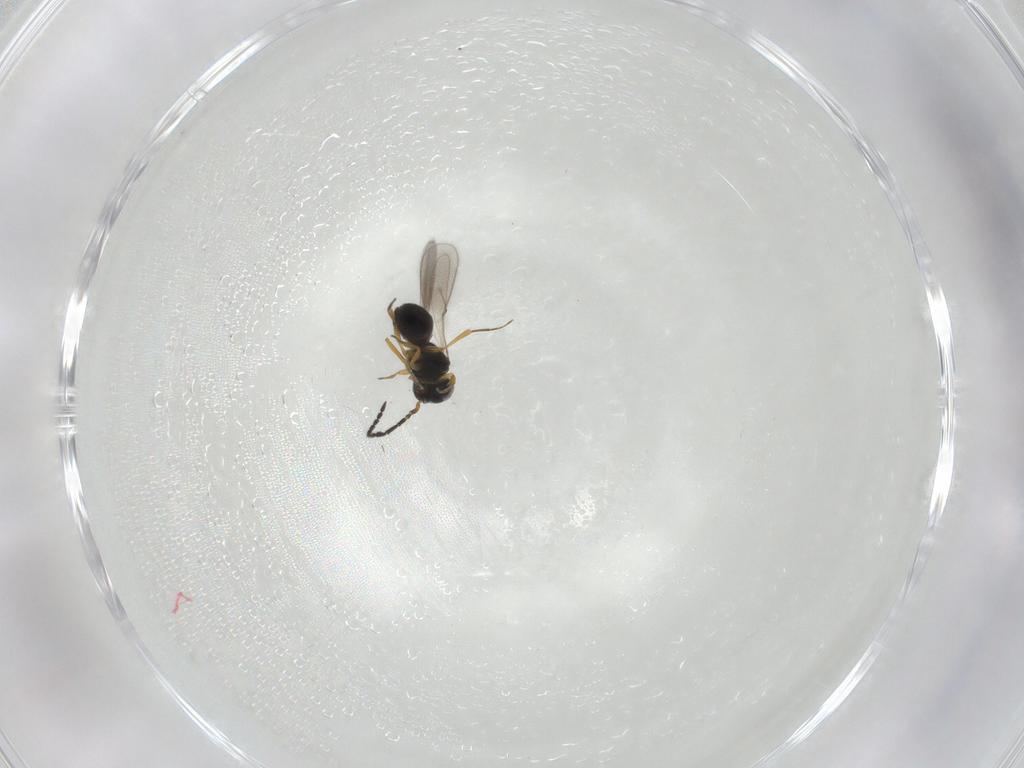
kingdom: Animalia
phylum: Arthropoda
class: Insecta
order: Hymenoptera
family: Scelionidae
